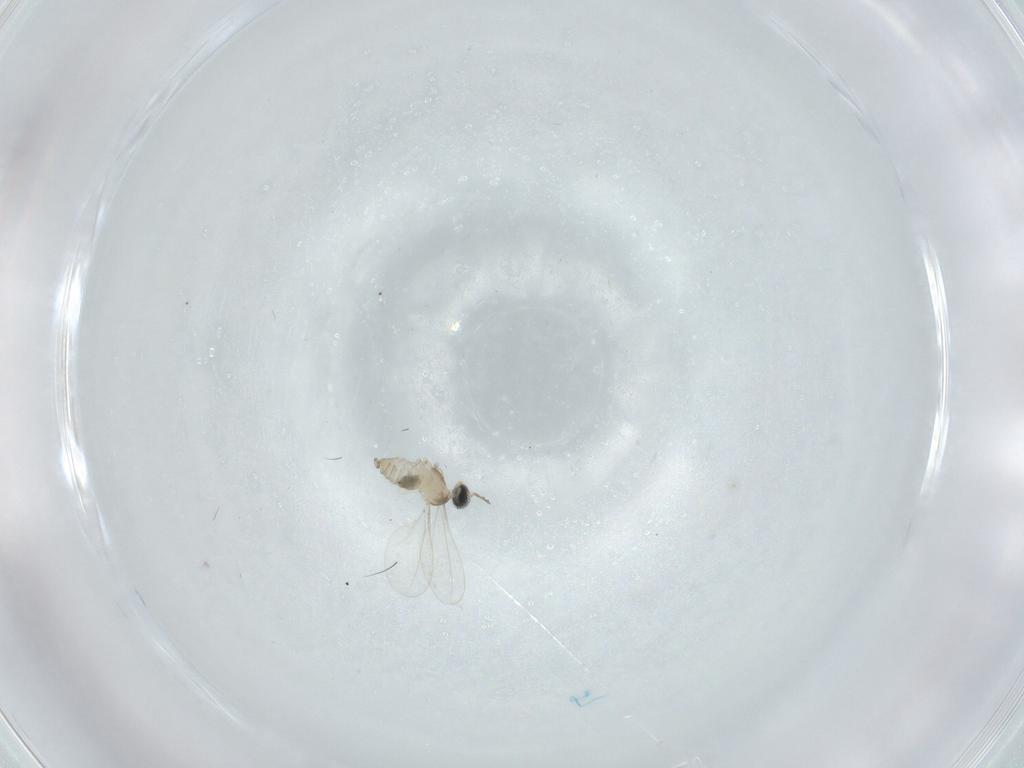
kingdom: Animalia
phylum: Arthropoda
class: Insecta
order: Diptera
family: Cecidomyiidae
